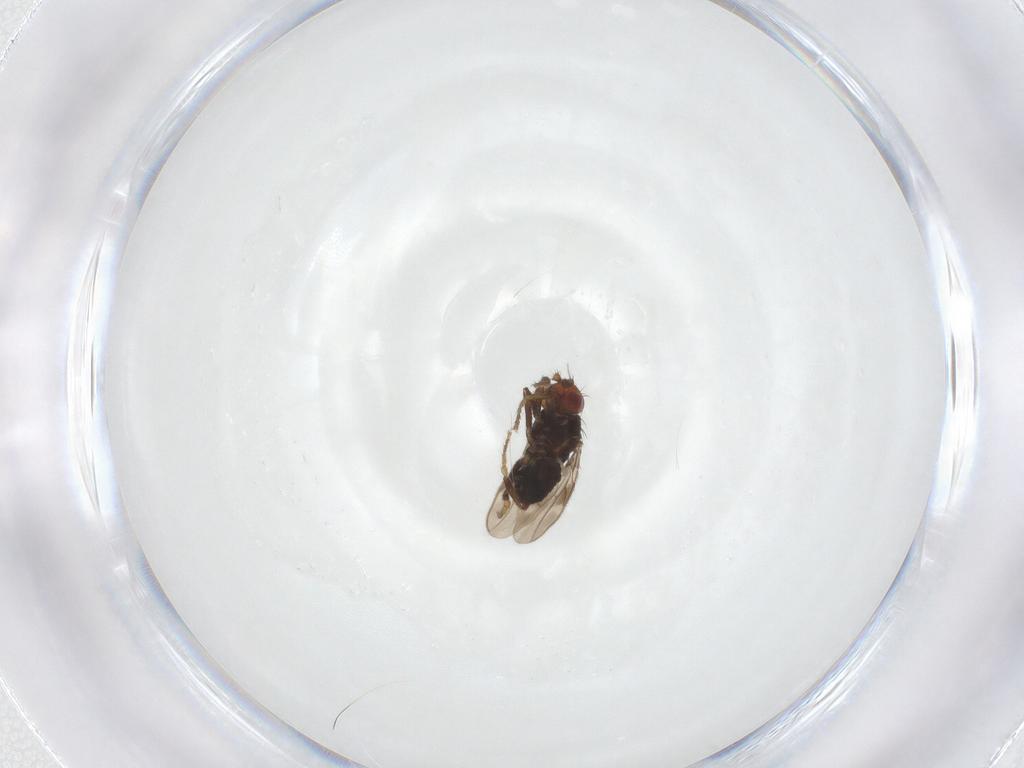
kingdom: Animalia
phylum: Arthropoda
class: Insecta
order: Diptera
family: Sphaeroceridae
